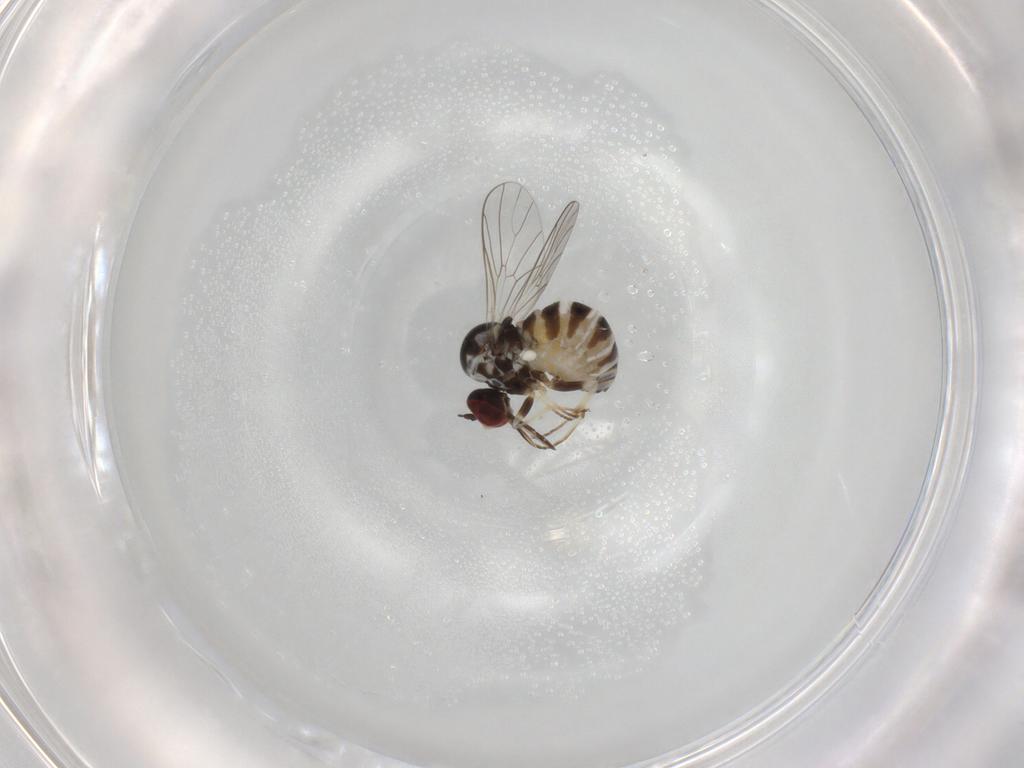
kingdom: Animalia
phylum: Arthropoda
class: Insecta
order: Diptera
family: Bombyliidae
